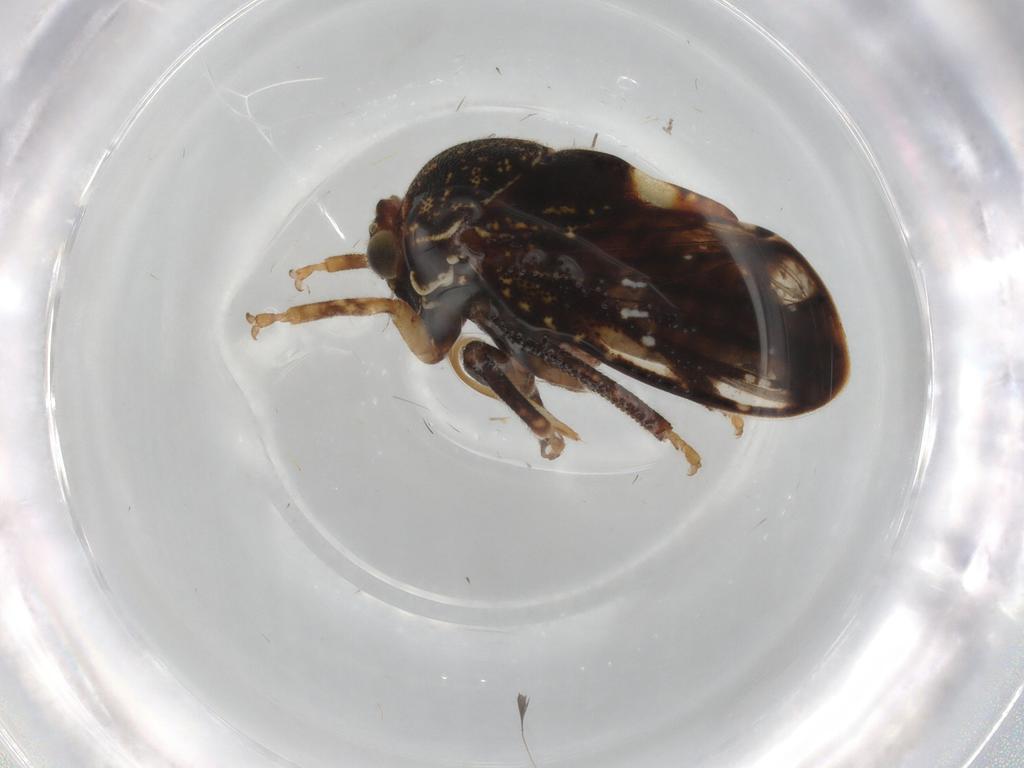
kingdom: Animalia
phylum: Arthropoda
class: Insecta
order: Hemiptera
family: Membracidae
